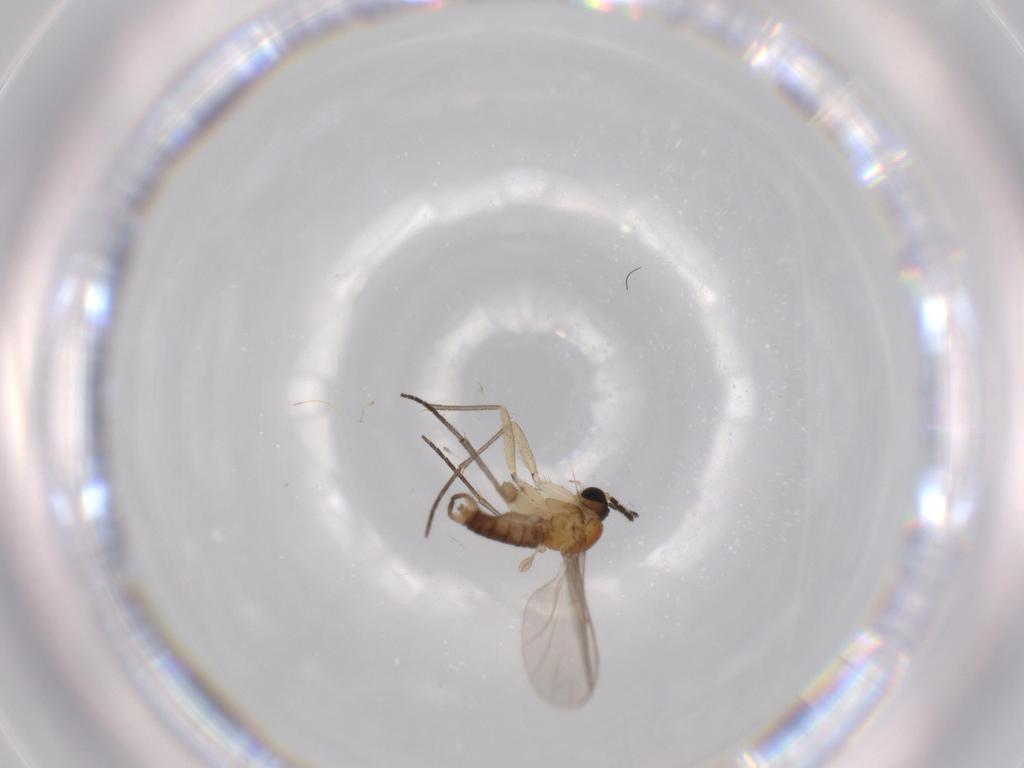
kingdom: Animalia
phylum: Arthropoda
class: Insecta
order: Diptera
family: Sciaridae
